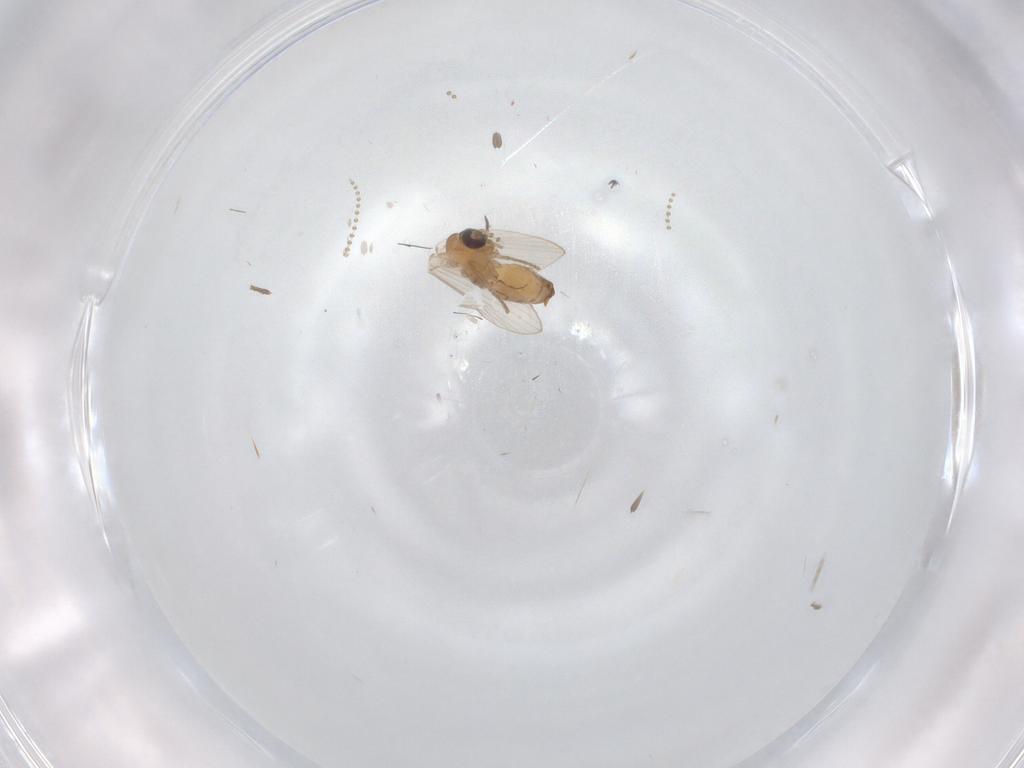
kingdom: Animalia
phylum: Arthropoda
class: Insecta
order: Diptera
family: Psychodidae
